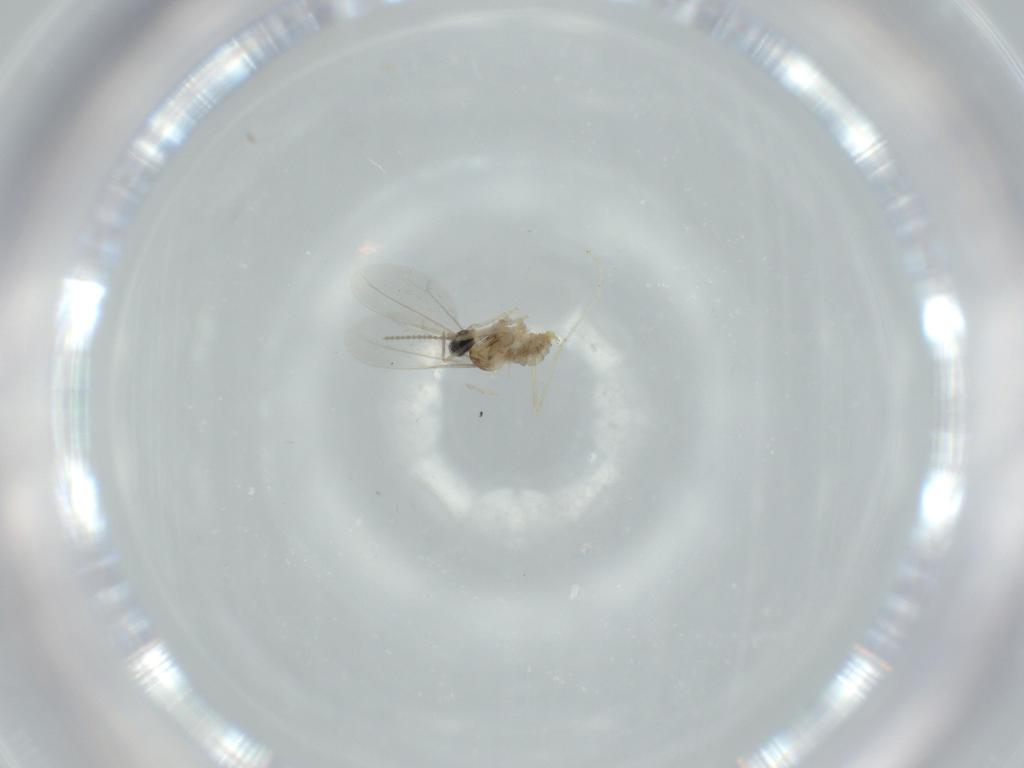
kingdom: Animalia
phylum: Arthropoda
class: Insecta
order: Diptera
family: Cecidomyiidae
